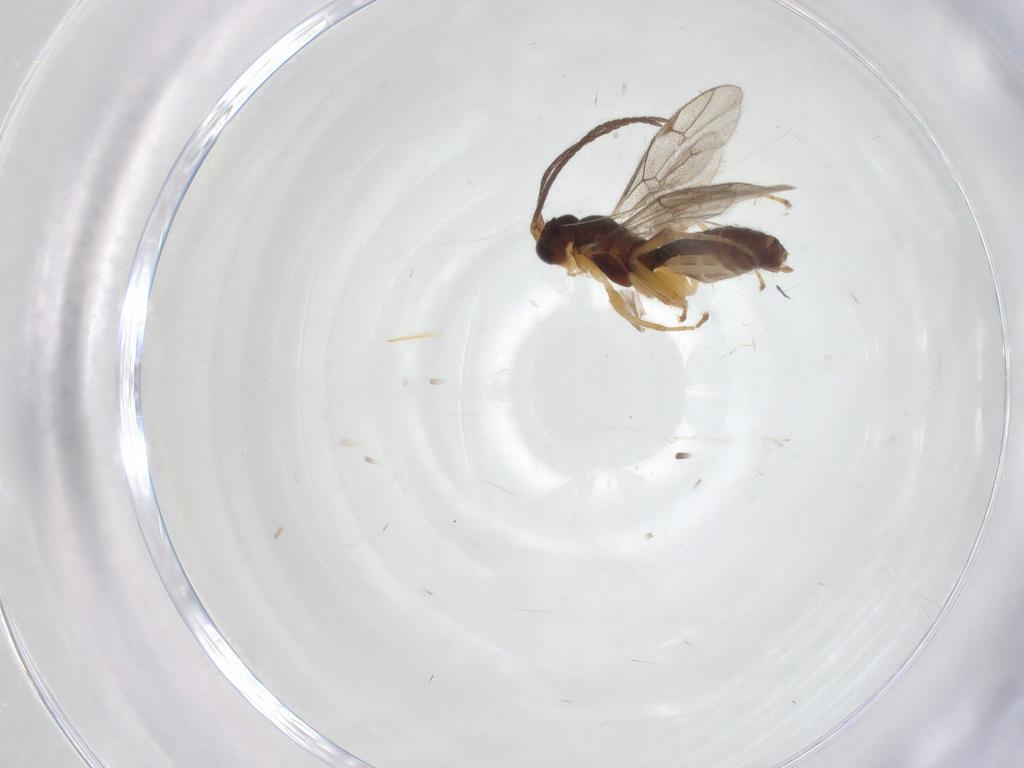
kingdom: Animalia
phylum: Arthropoda
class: Insecta
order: Hymenoptera
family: Ichneumonidae
